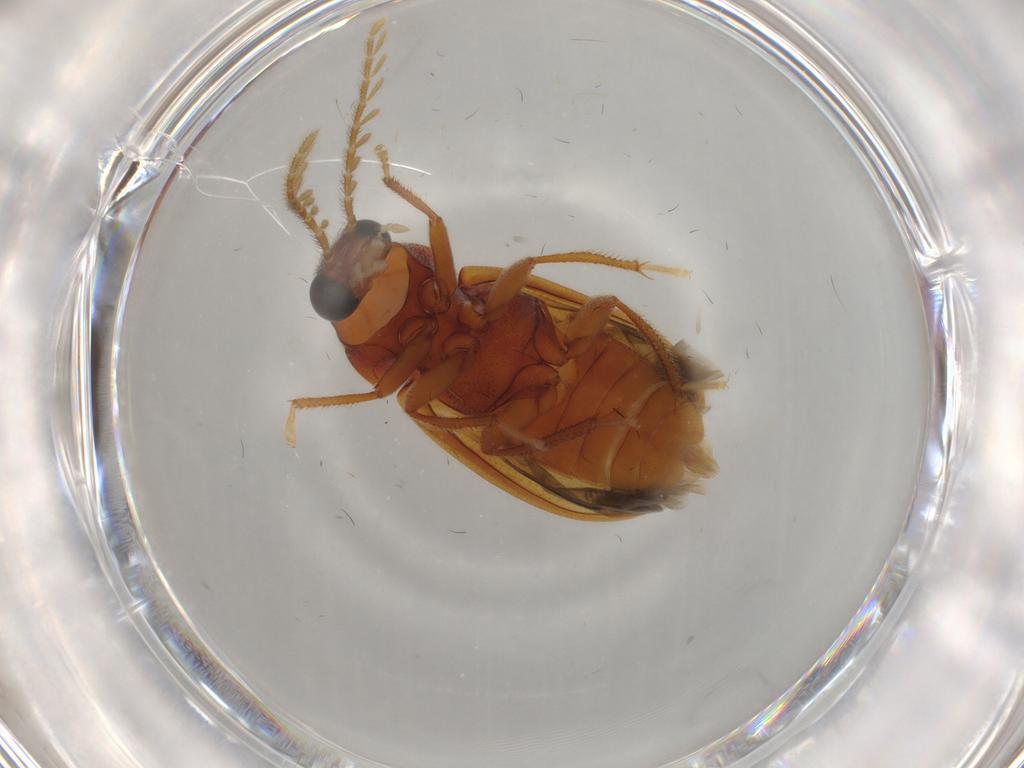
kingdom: Animalia
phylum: Arthropoda
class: Insecta
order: Coleoptera
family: Ptilodactylidae
